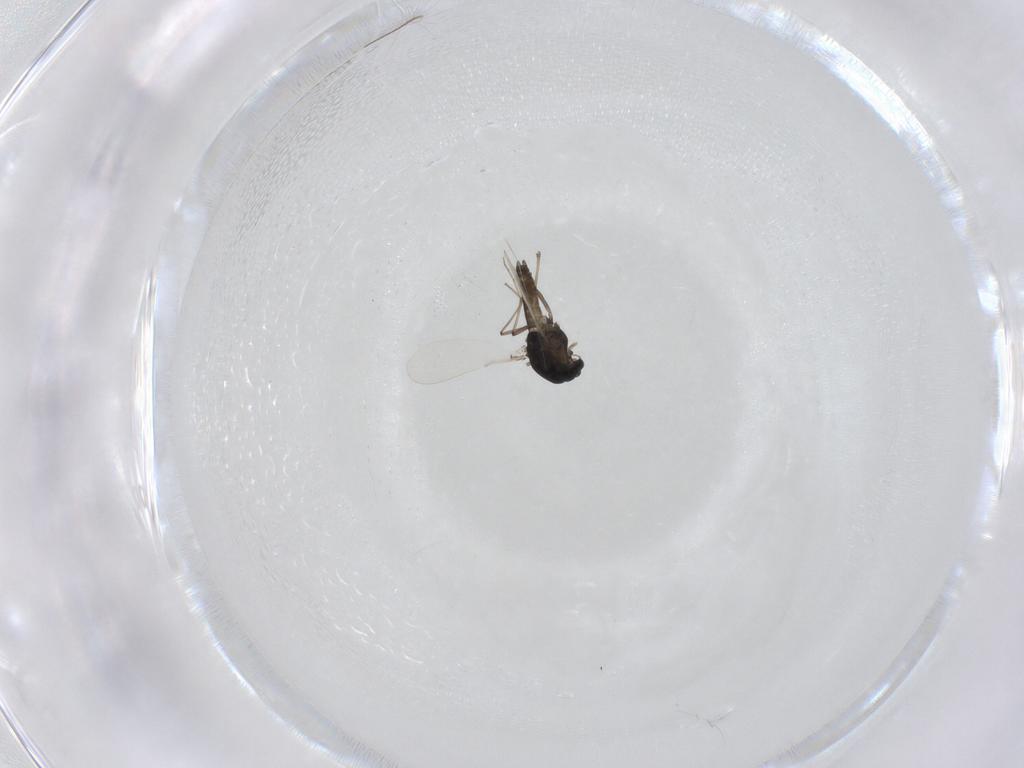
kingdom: Animalia
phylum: Arthropoda
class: Insecta
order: Diptera
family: Chironomidae
